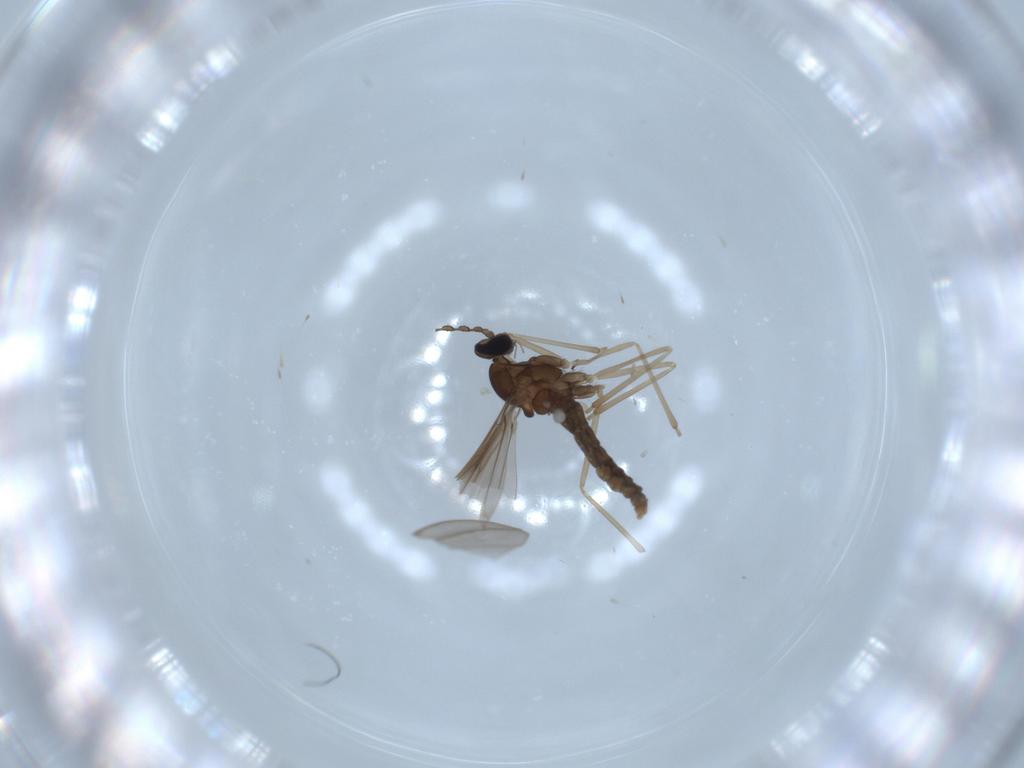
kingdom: Animalia
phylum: Arthropoda
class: Insecta
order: Diptera
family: Cecidomyiidae
